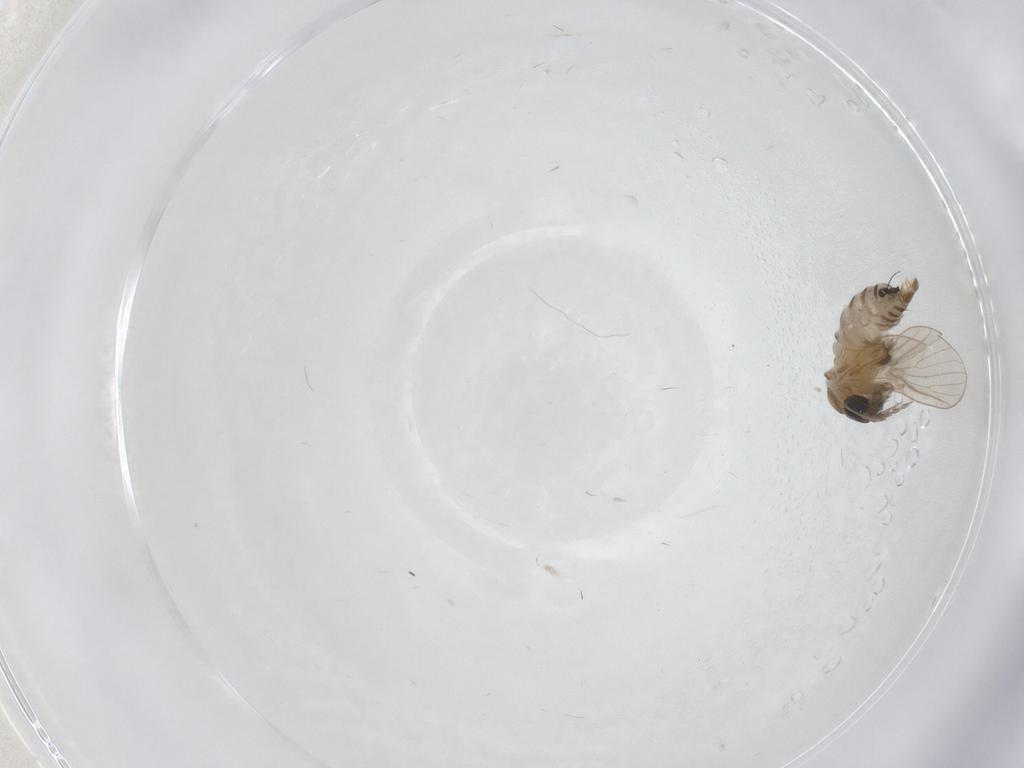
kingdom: Animalia
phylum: Arthropoda
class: Insecta
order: Diptera
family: Psychodidae
